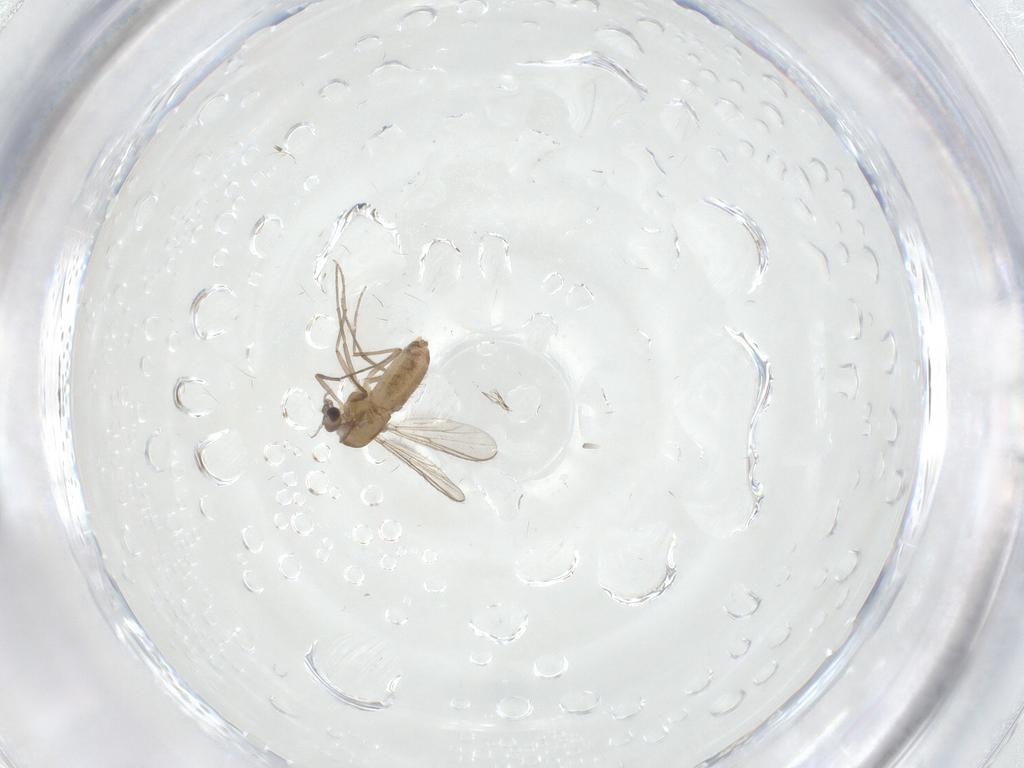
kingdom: Animalia
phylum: Arthropoda
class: Insecta
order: Diptera
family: Chironomidae
